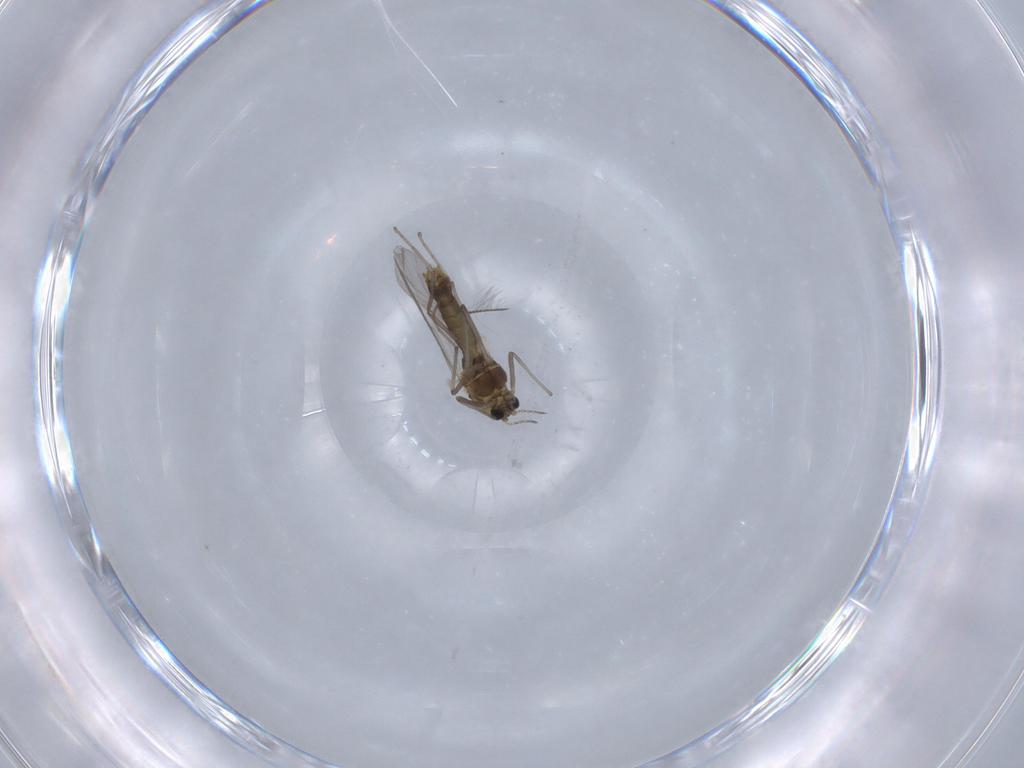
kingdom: Animalia
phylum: Arthropoda
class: Insecta
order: Diptera
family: Chironomidae
